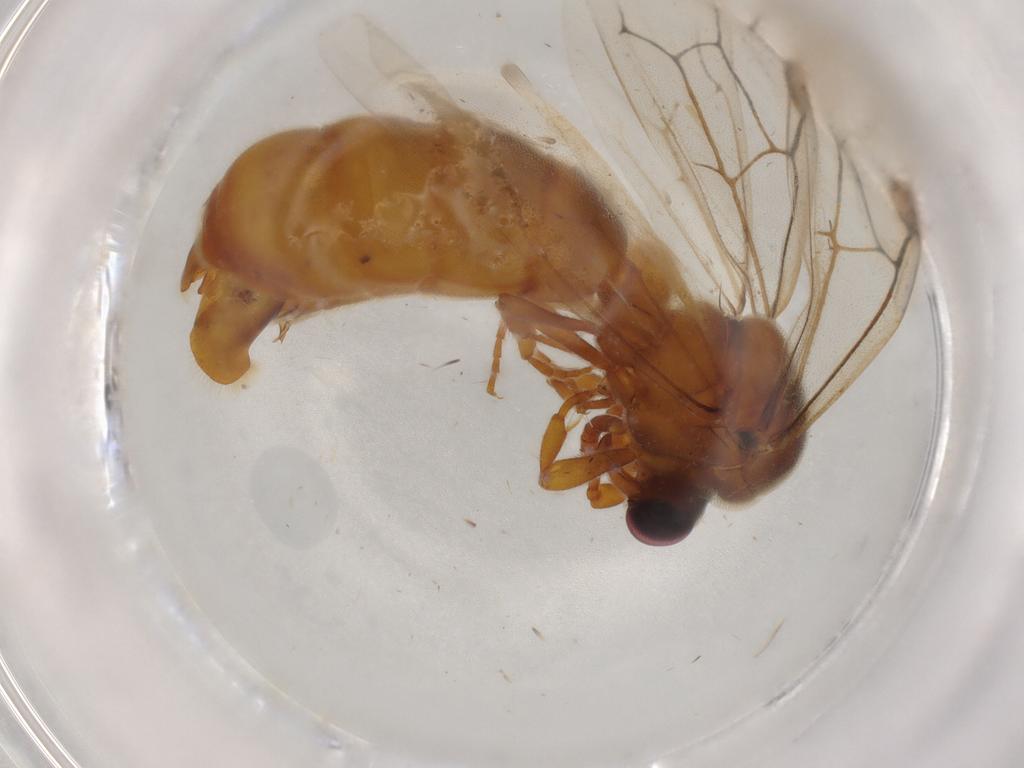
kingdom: Animalia
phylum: Arthropoda
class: Insecta
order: Hymenoptera
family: Formicidae
